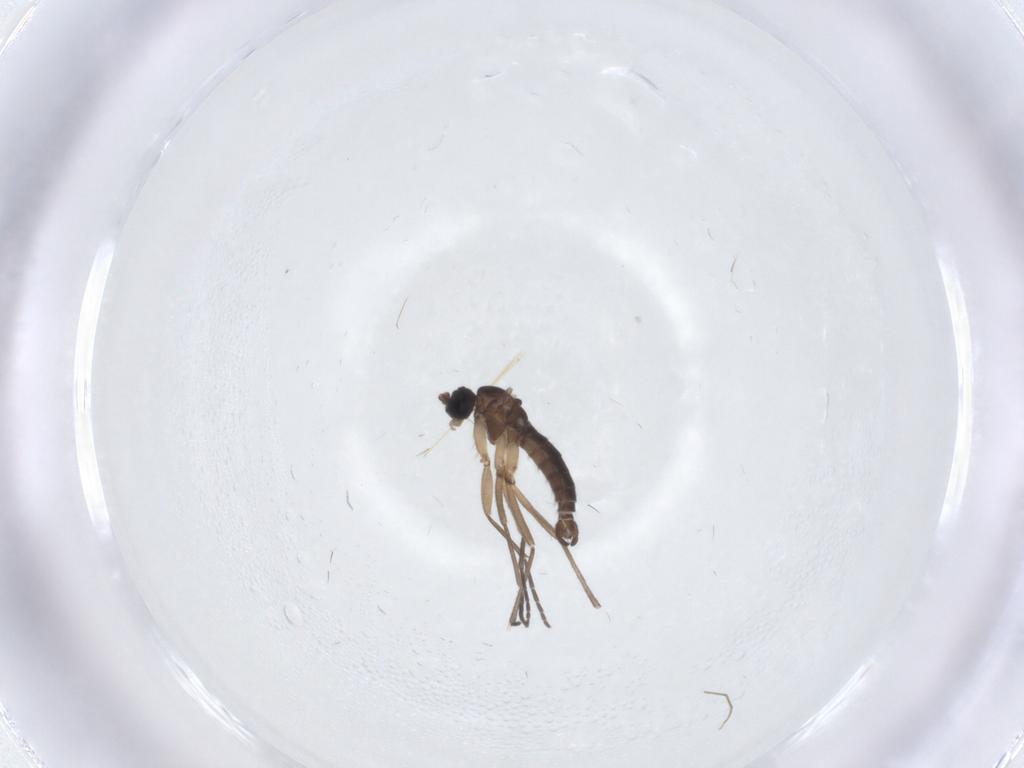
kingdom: Animalia
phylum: Arthropoda
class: Insecta
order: Diptera
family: Sciaridae
